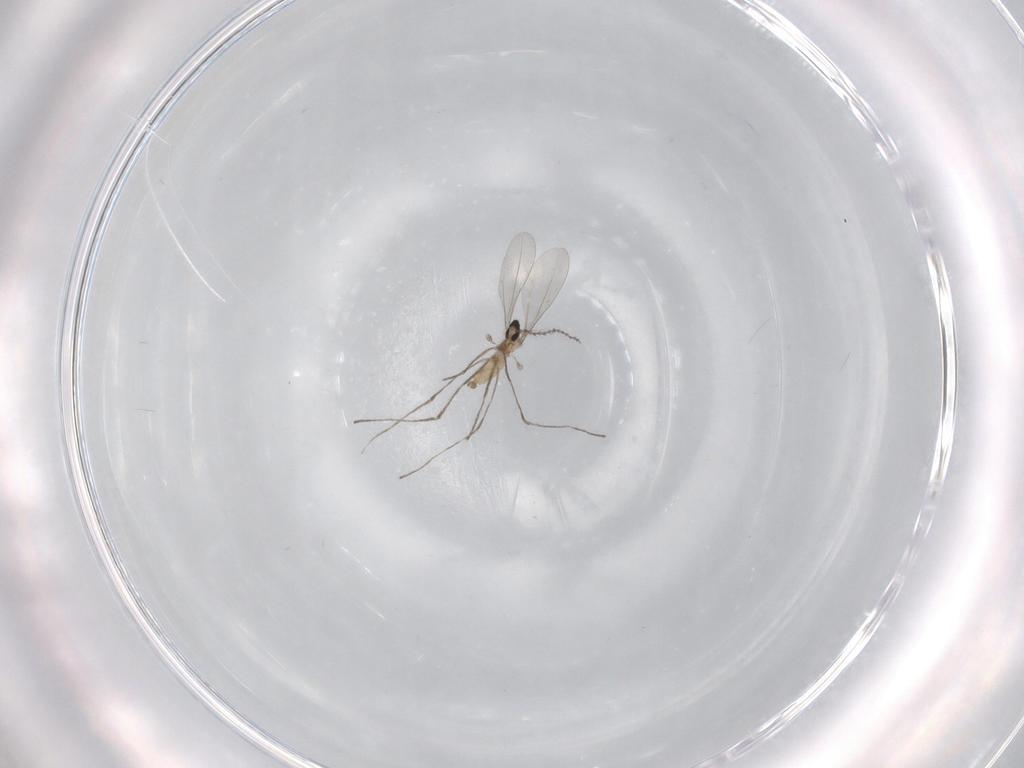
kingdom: Animalia
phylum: Arthropoda
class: Insecta
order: Diptera
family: Cecidomyiidae
